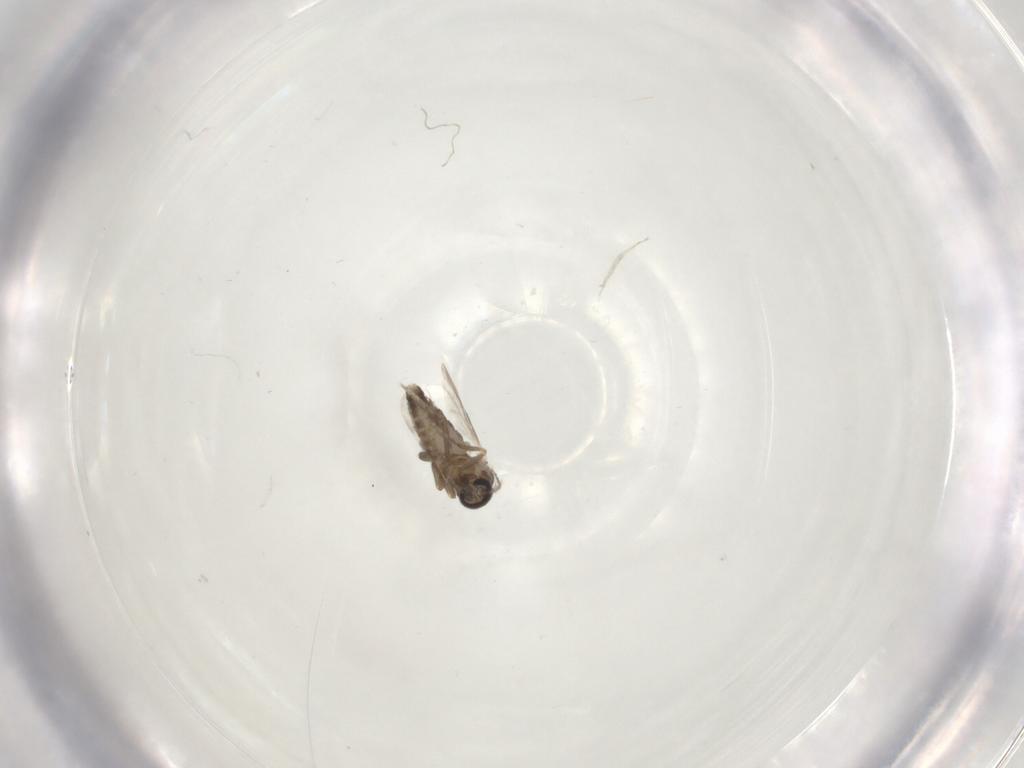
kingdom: Animalia
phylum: Arthropoda
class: Insecta
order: Diptera
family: Ceratopogonidae
